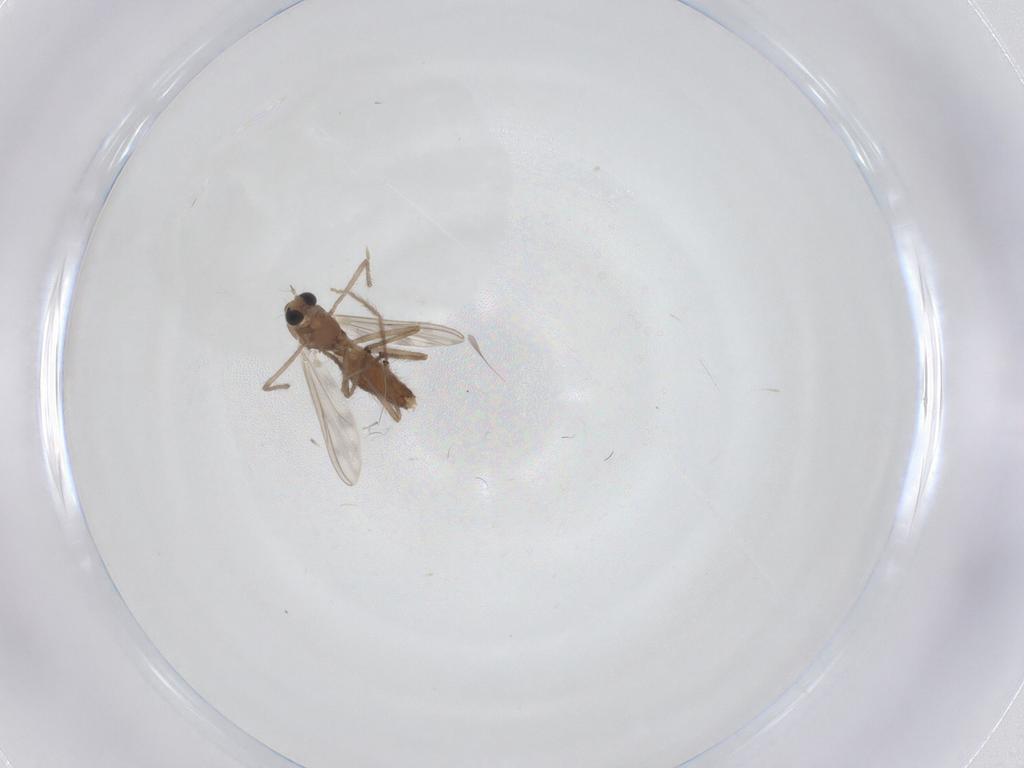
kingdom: Animalia
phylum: Arthropoda
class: Insecta
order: Diptera
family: Chironomidae
